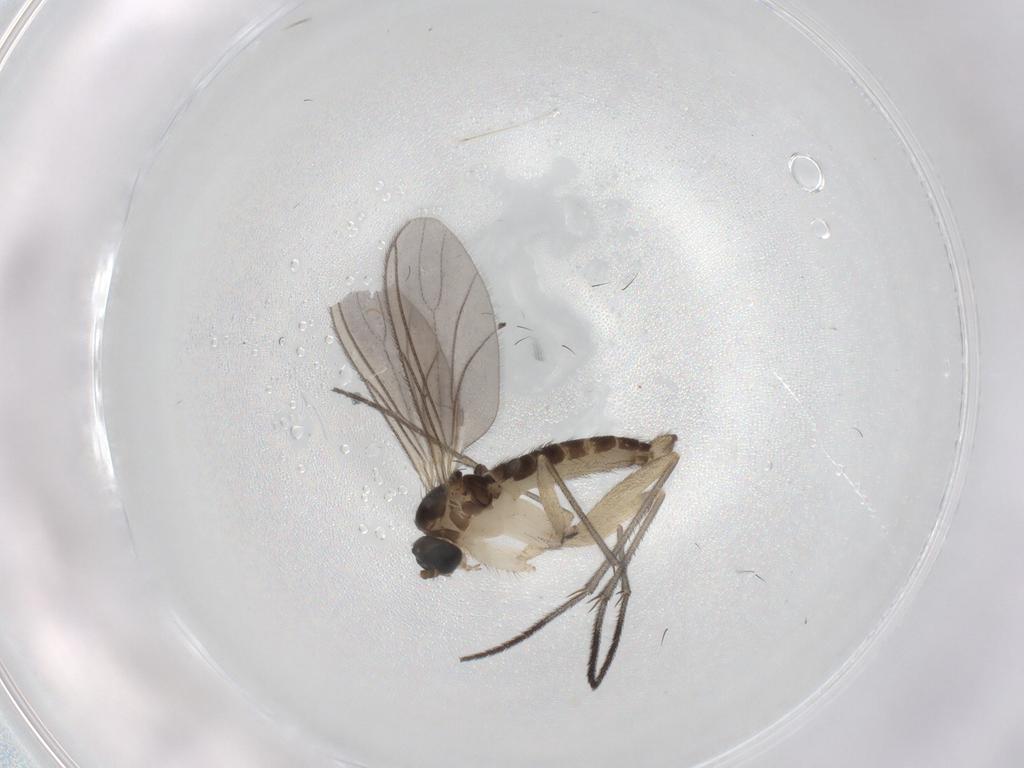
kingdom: Animalia
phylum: Arthropoda
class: Insecta
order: Diptera
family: Sciaridae
